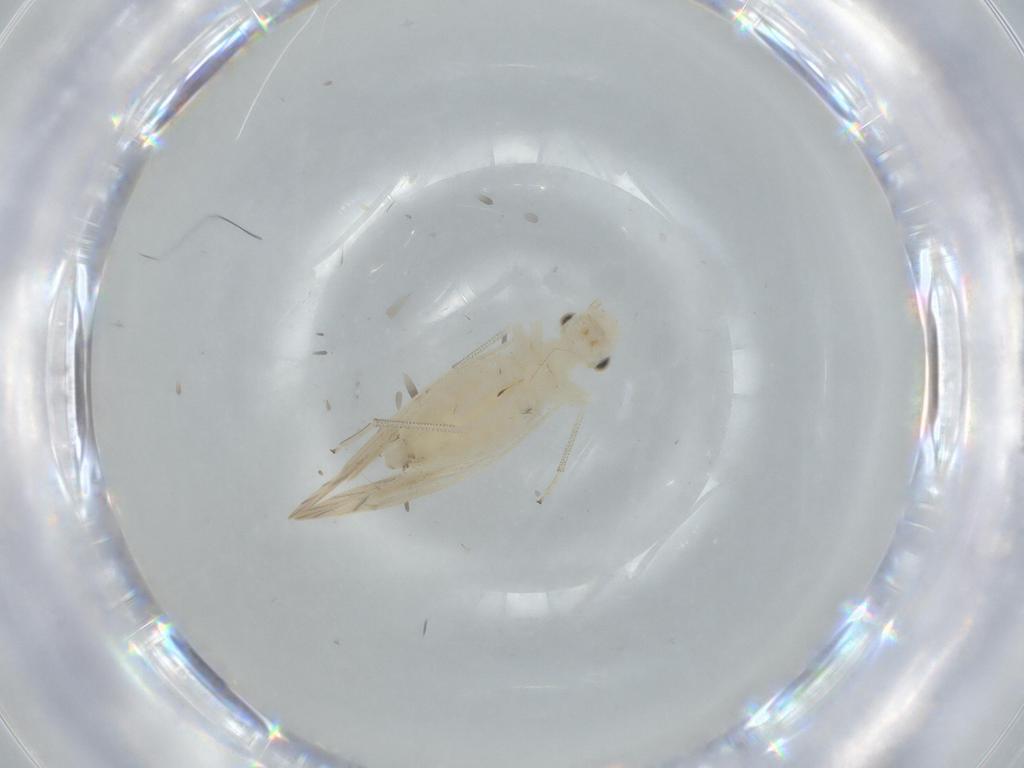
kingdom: Animalia
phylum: Arthropoda
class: Insecta
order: Psocodea
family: Caeciliusidae
